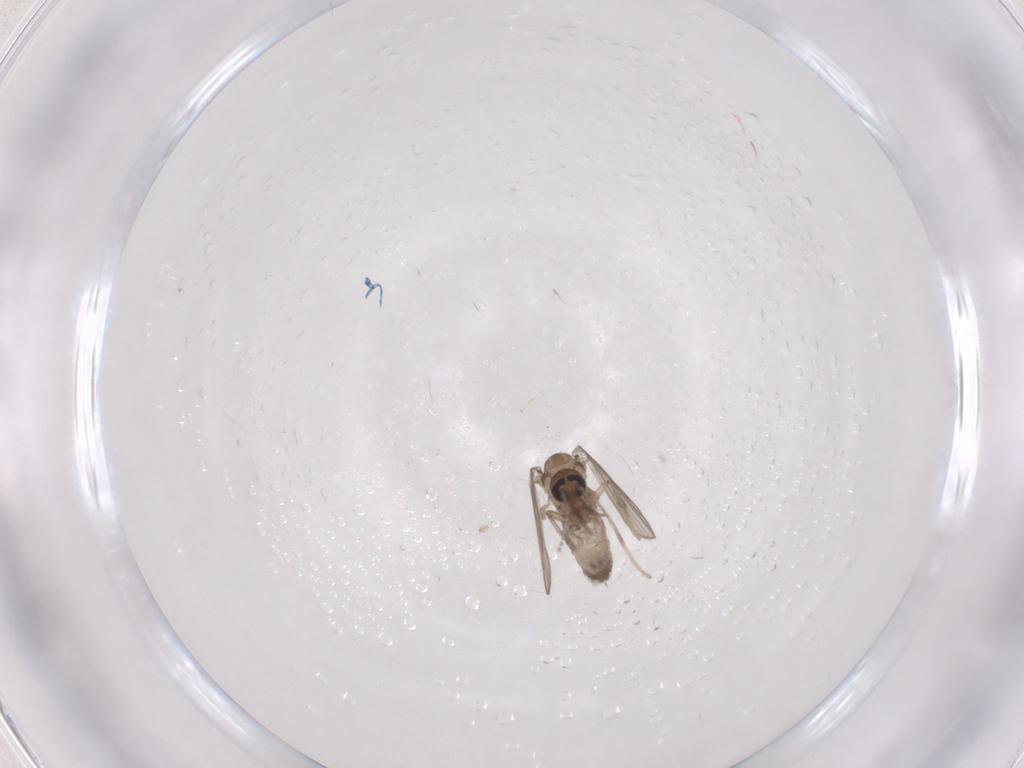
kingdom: Animalia
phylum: Arthropoda
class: Insecta
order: Diptera
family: Psychodidae
